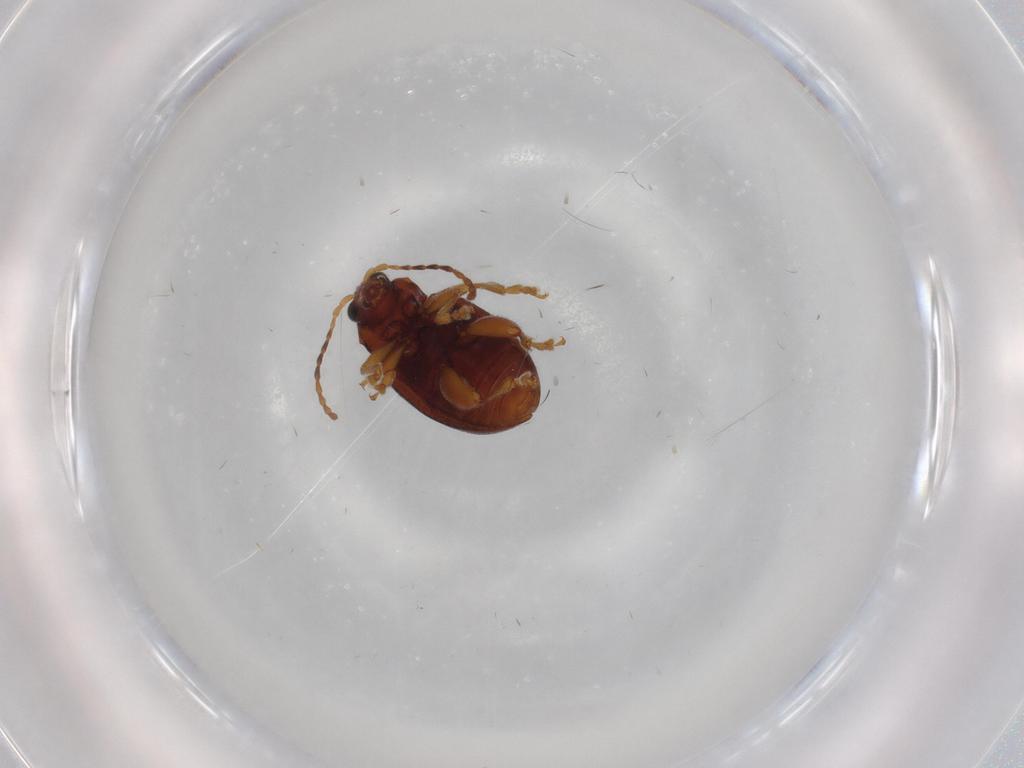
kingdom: Animalia
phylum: Arthropoda
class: Insecta
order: Coleoptera
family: Chrysomelidae
